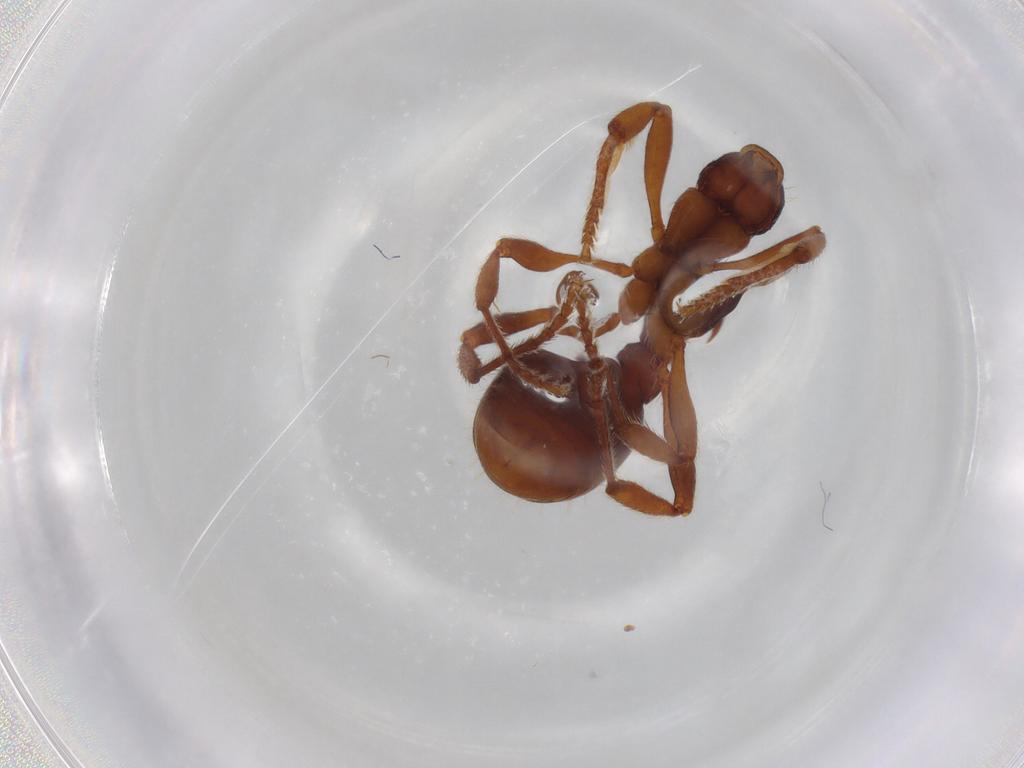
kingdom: Animalia
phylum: Arthropoda
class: Insecta
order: Hymenoptera
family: Formicidae
